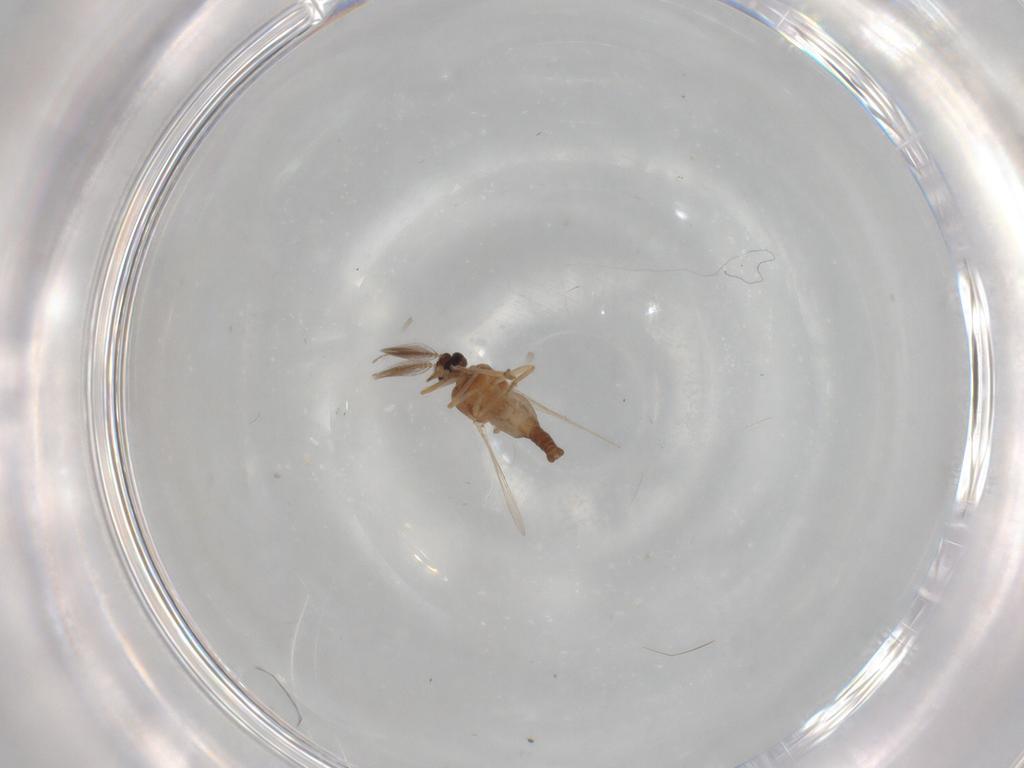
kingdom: Animalia
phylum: Arthropoda
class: Insecta
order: Diptera
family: Ceratopogonidae
